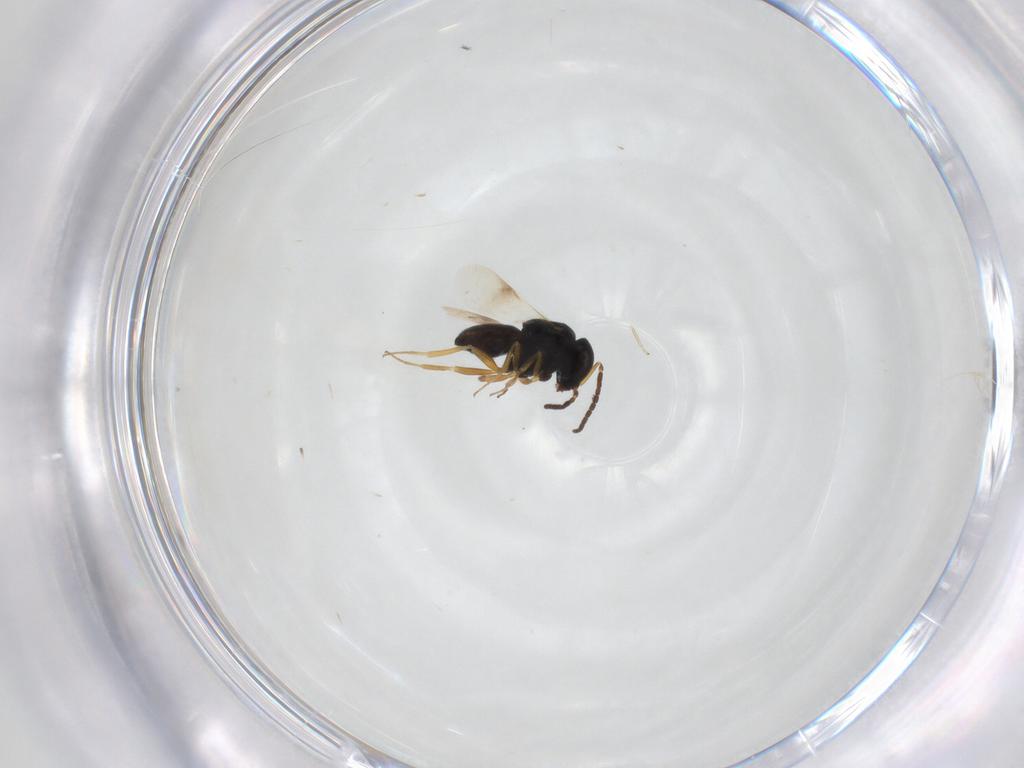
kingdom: Animalia
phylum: Arthropoda
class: Insecta
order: Hymenoptera
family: Scelionidae
